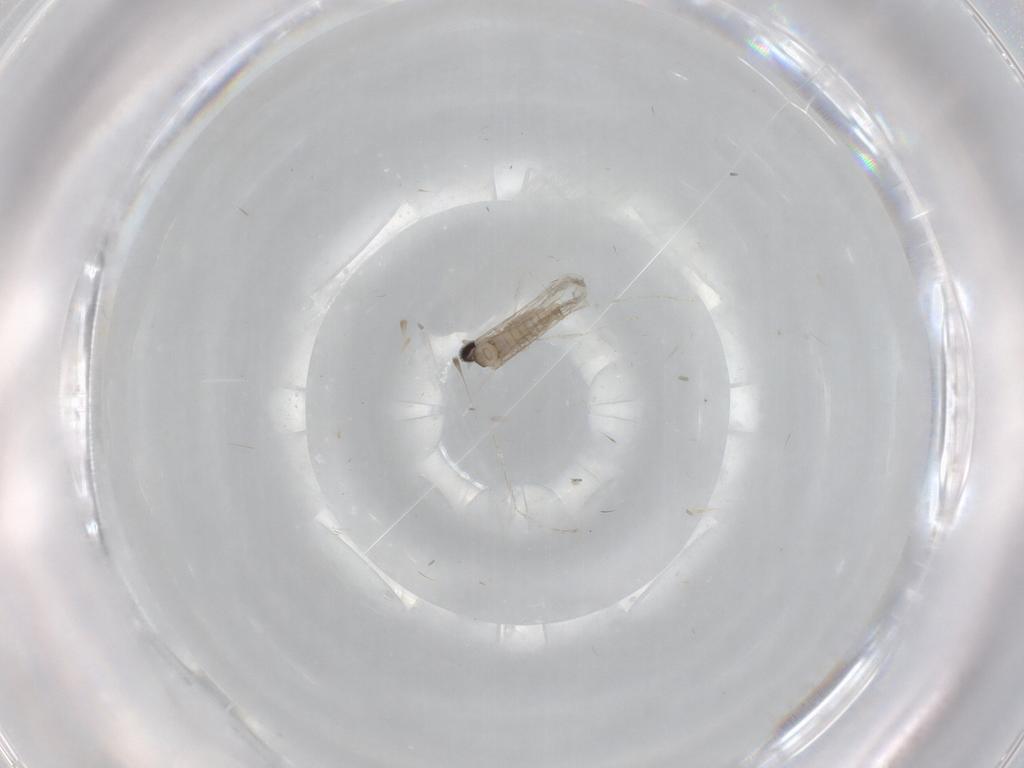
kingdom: Animalia
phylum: Arthropoda
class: Insecta
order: Diptera
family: Cecidomyiidae
